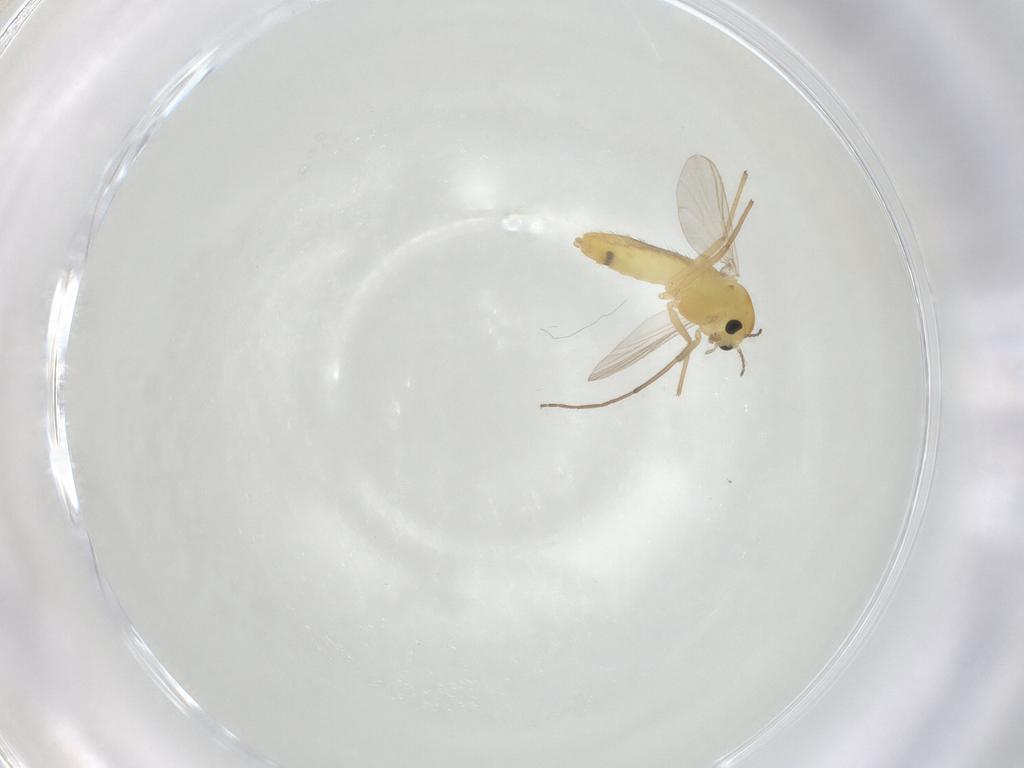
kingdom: Animalia
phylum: Arthropoda
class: Insecta
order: Diptera
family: Chironomidae
